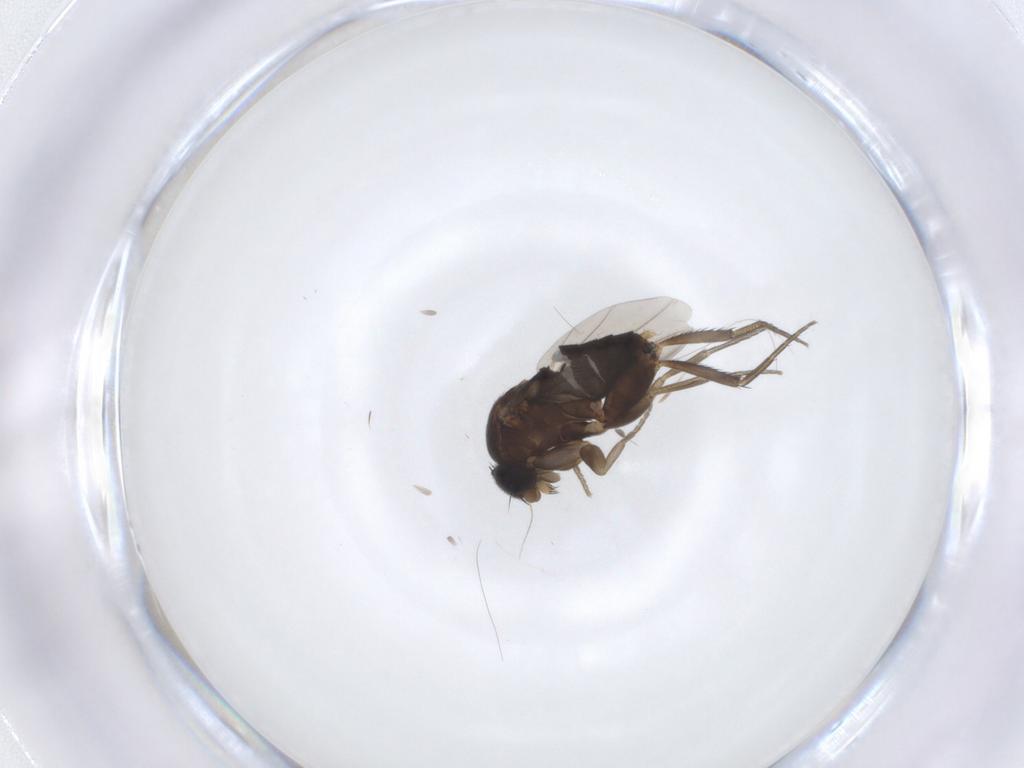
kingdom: Animalia
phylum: Arthropoda
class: Insecta
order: Diptera
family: Phoridae
